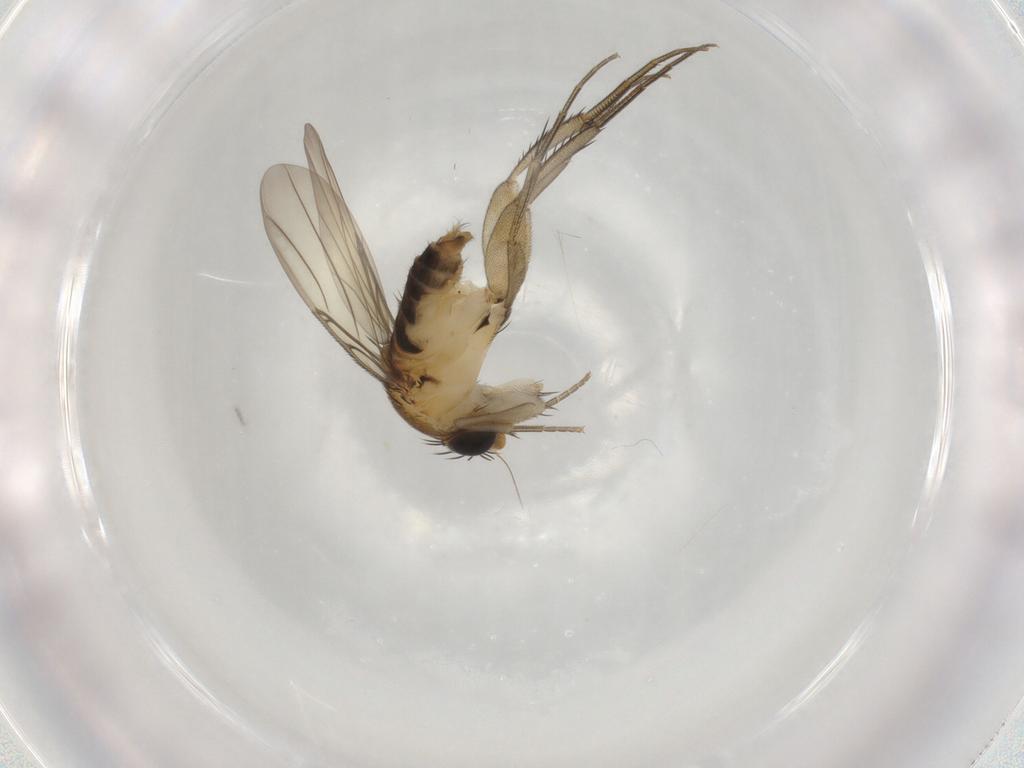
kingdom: Animalia
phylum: Arthropoda
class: Insecta
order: Diptera
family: Phoridae
